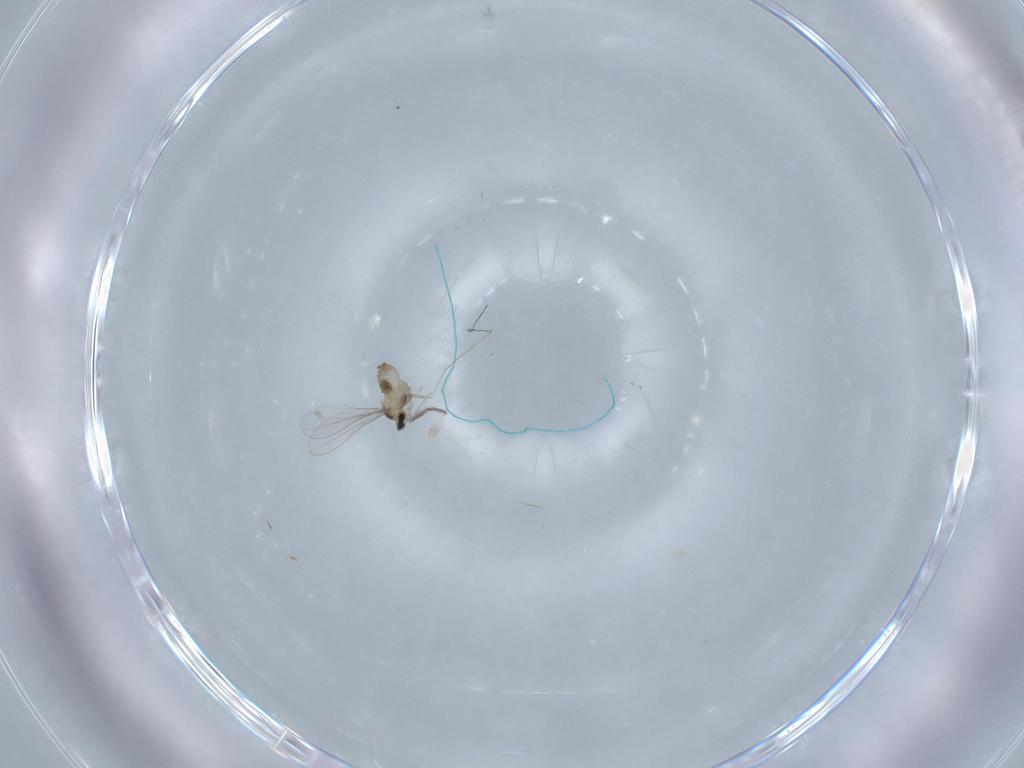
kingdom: Animalia
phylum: Arthropoda
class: Insecta
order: Diptera
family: Cecidomyiidae
